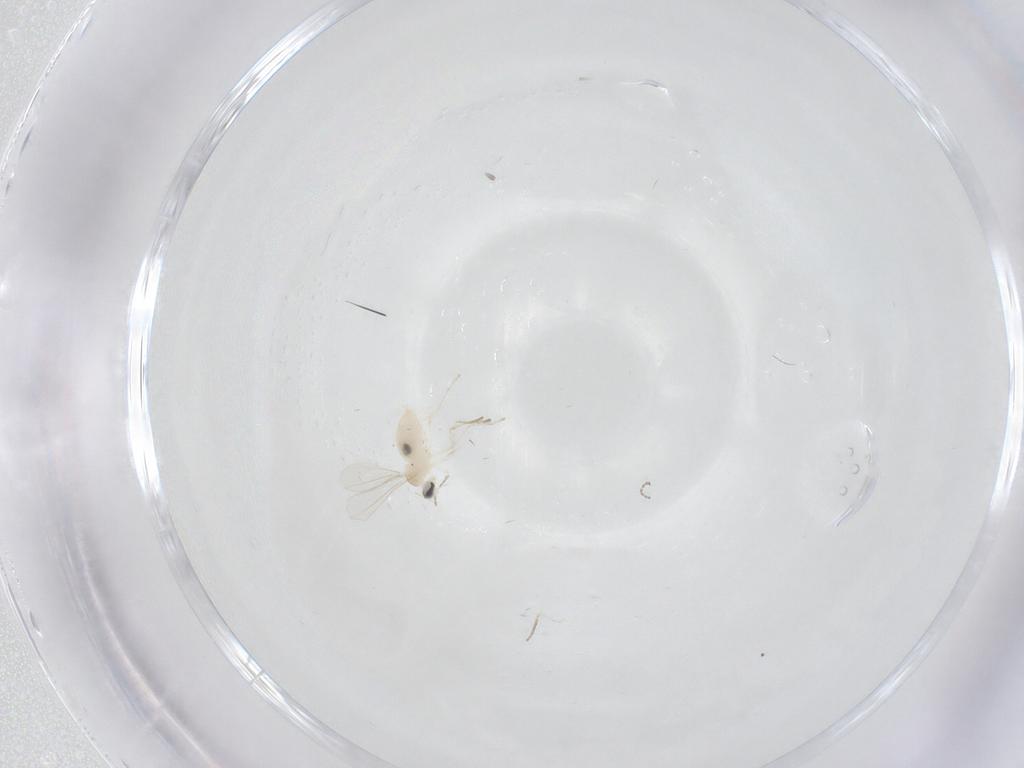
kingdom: Animalia
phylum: Arthropoda
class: Insecta
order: Diptera
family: Cecidomyiidae
